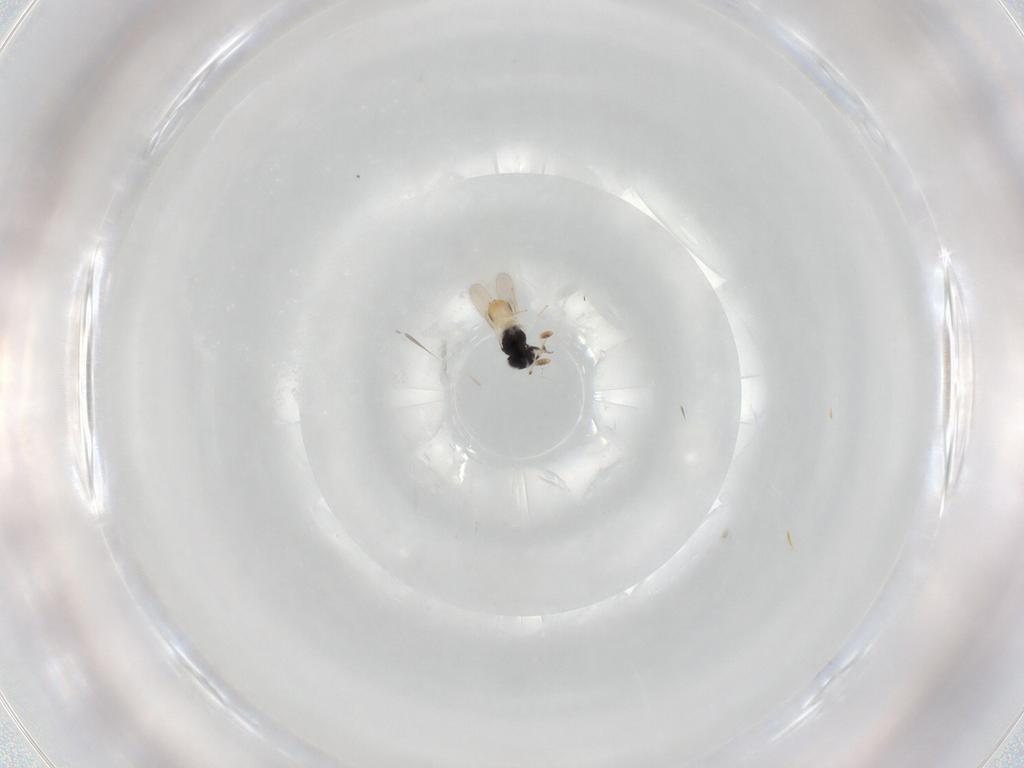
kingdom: Animalia
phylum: Arthropoda
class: Insecta
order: Hymenoptera
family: Scelionidae
